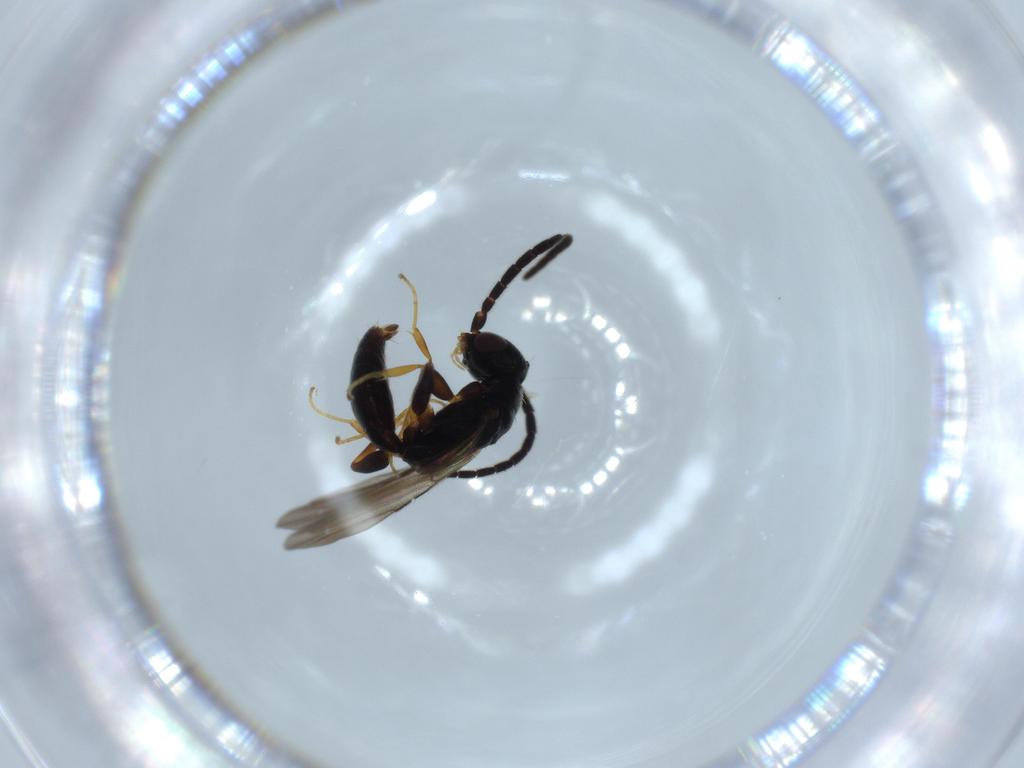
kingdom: Animalia
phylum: Arthropoda
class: Insecta
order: Hymenoptera
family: Scelionidae
